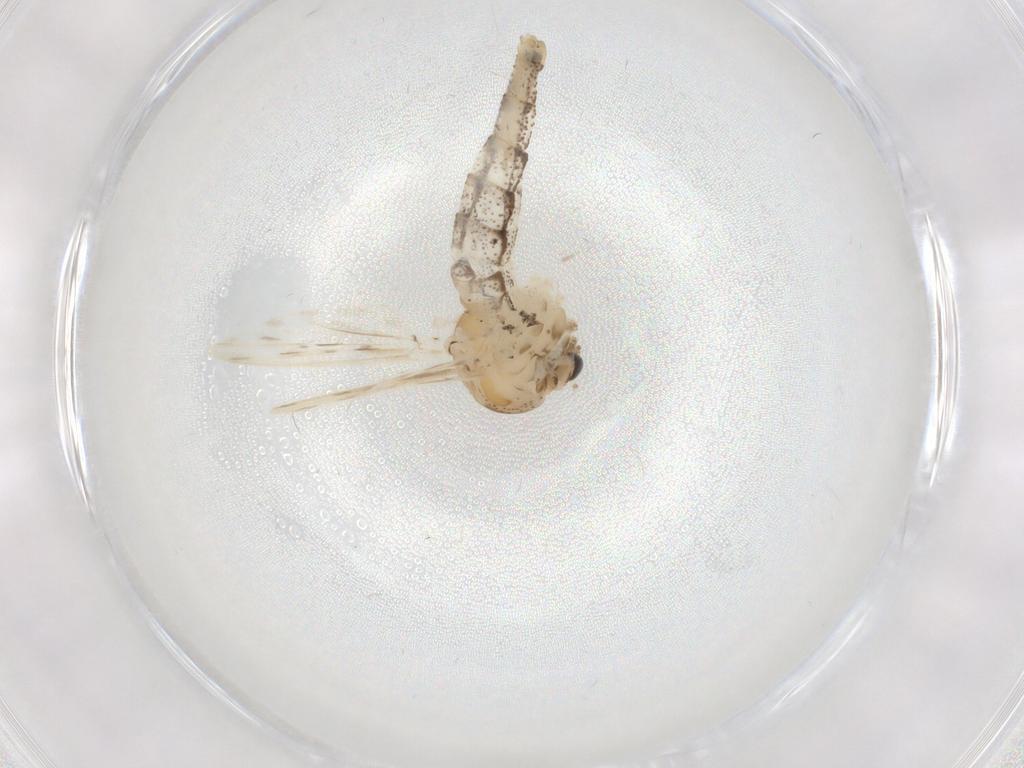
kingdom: Animalia
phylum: Arthropoda
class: Insecta
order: Diptera
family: Chaoboridae
